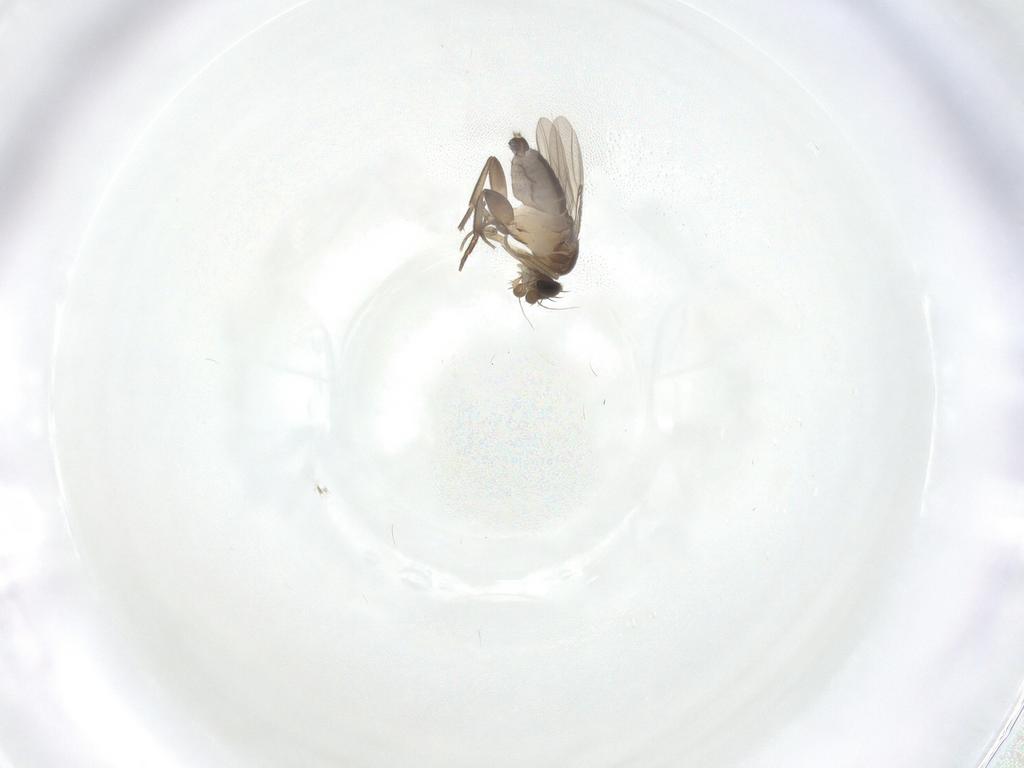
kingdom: Animalia
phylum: Arthropoda
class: Insecta
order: Diptera
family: Phoridae
